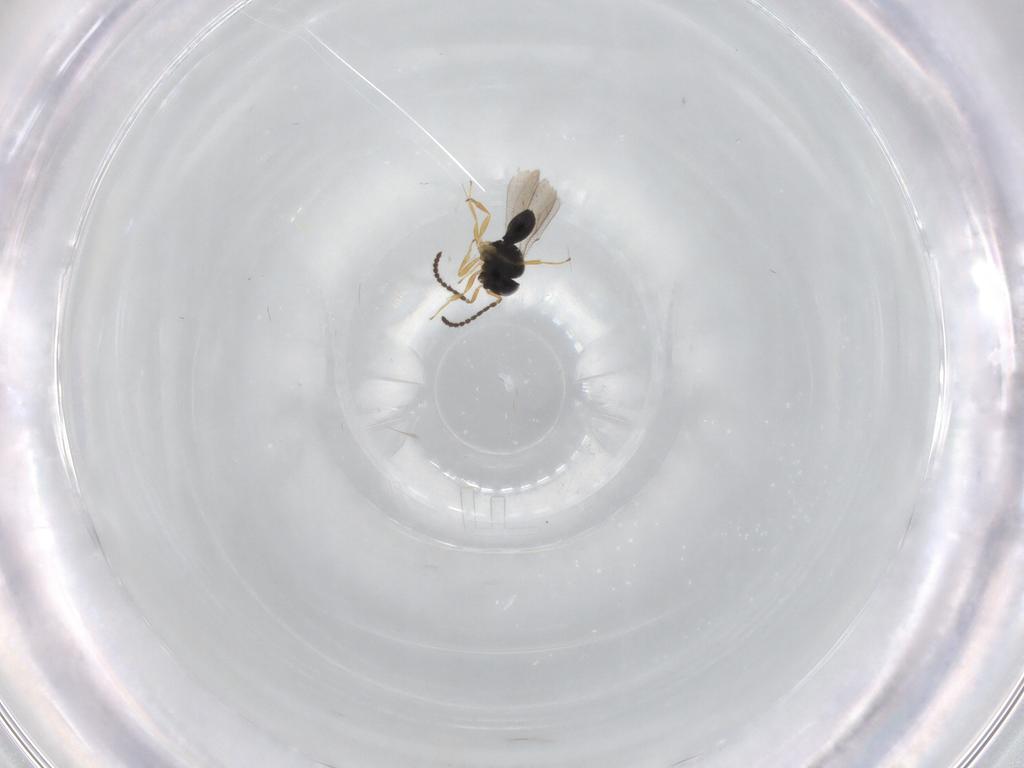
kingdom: Animalia
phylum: Arthropoda
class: Insecta
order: Hymenoptera
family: Scelionidae
